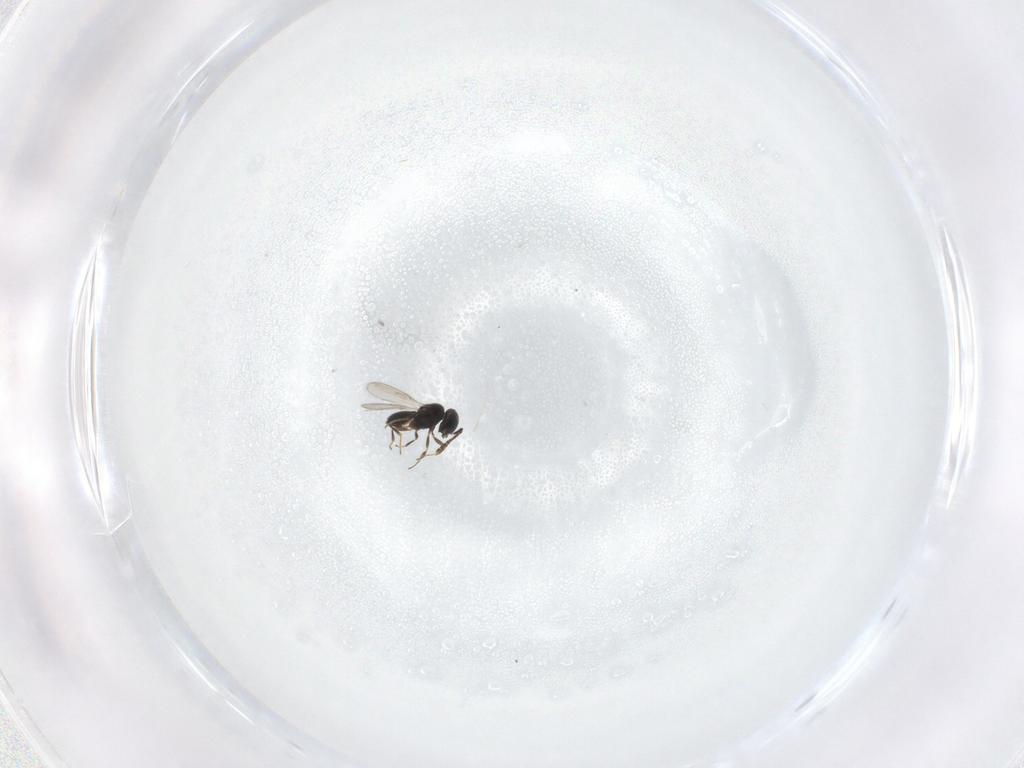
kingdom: Animalia
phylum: Arthropoda
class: Insecta
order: Hymenoptera
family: Scelionidae
